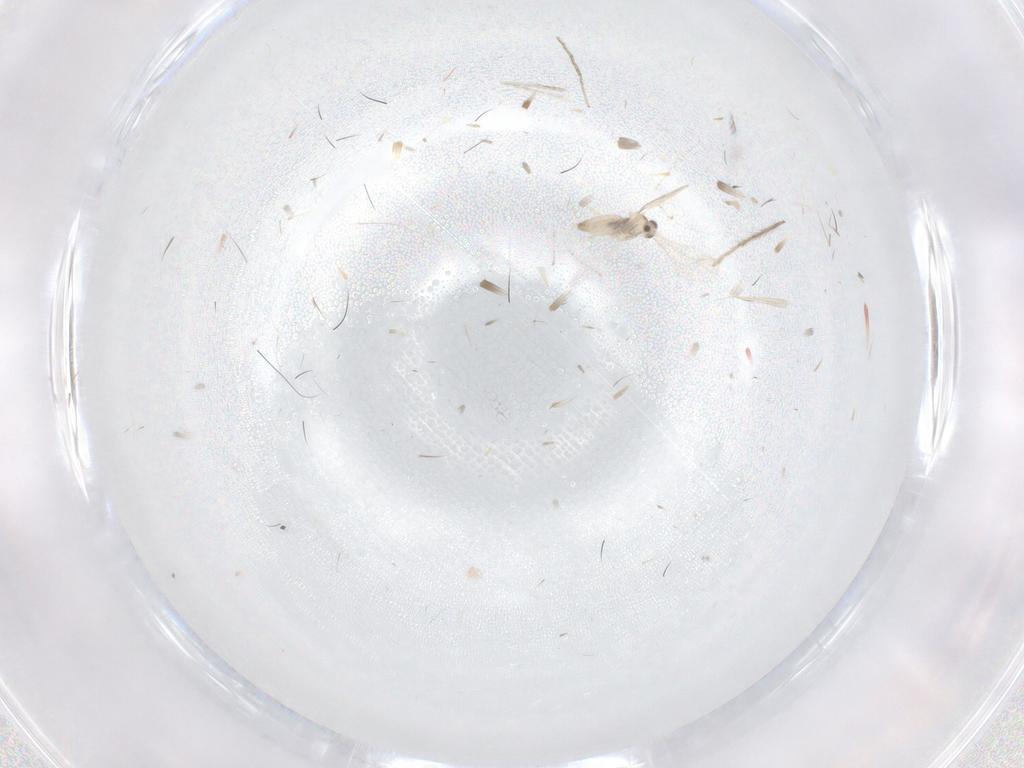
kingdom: Animalia
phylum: Arthropoda
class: Insecta
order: Diptera
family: Cecidomyiidae
